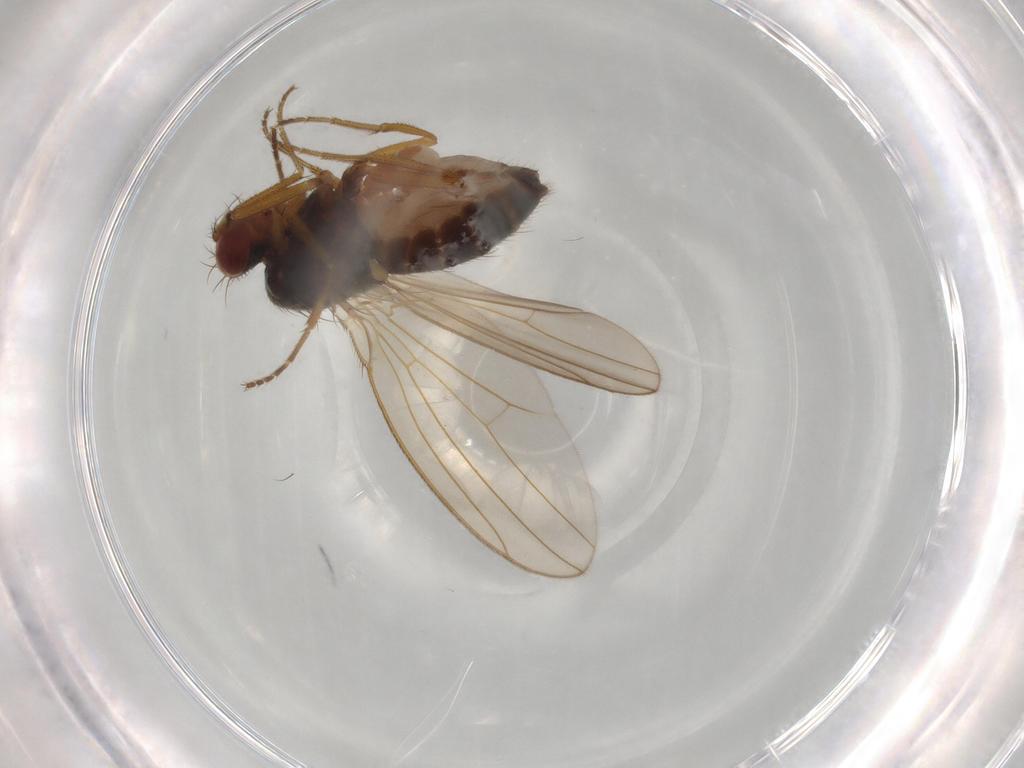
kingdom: Animalia
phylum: Arthropoda
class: Insecta
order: Diptera
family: Drosophilidae
